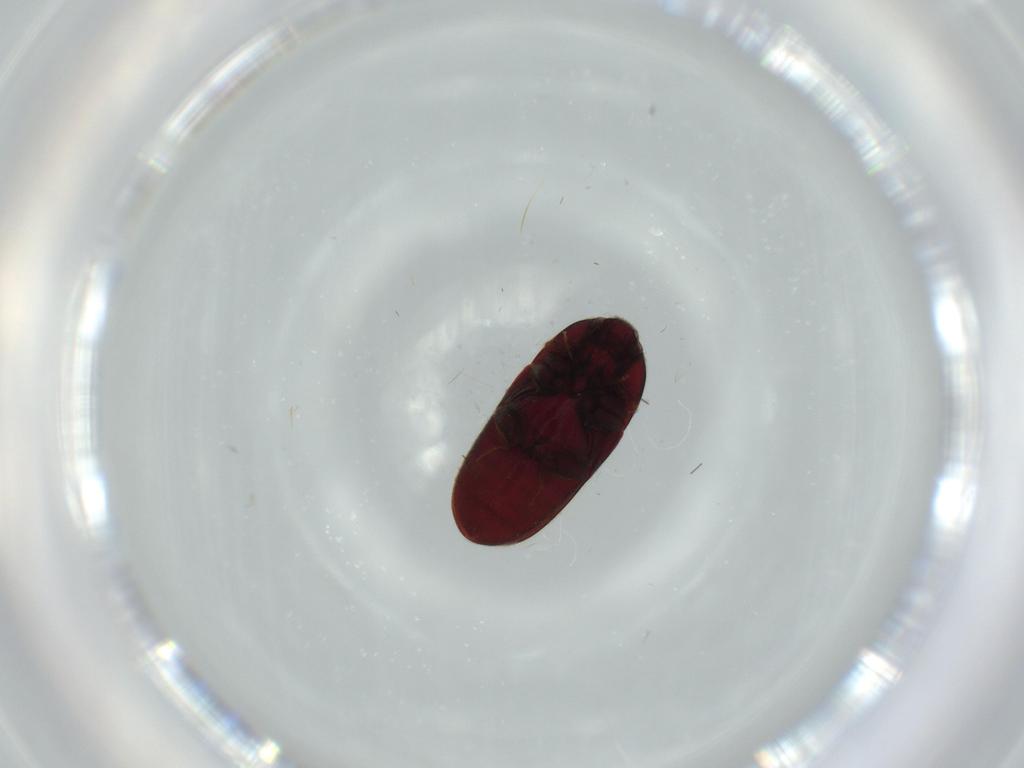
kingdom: Animalia
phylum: Arthropoda
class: Insecta
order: Coleoptera
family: Throscidae
